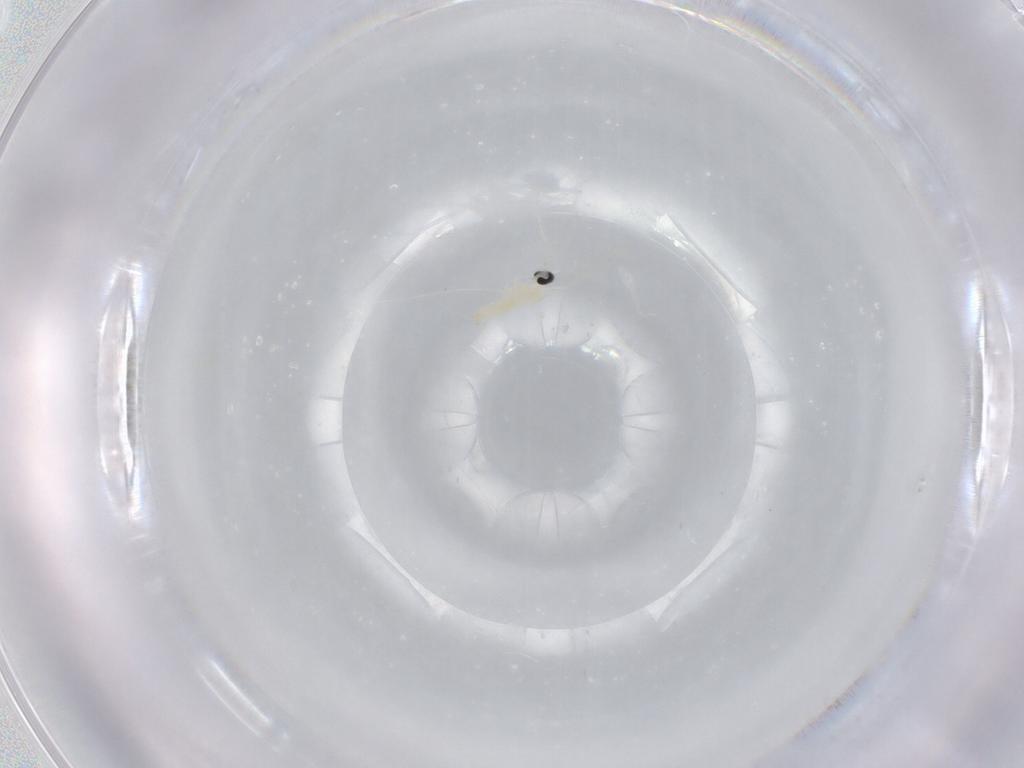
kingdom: Animalia
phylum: Arthropoda
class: Insecta
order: Diptera
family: Cecidomyiidae
